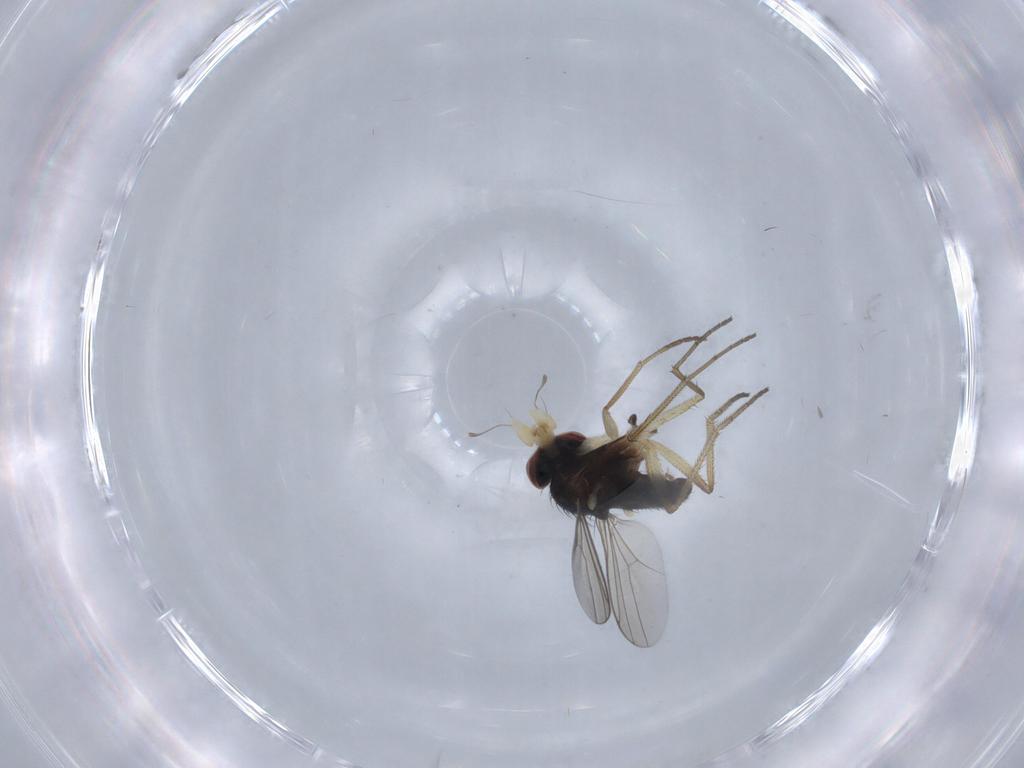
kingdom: Animalia
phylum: Arthropoda
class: Insecta
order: Diptera
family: Dolichopodidae
